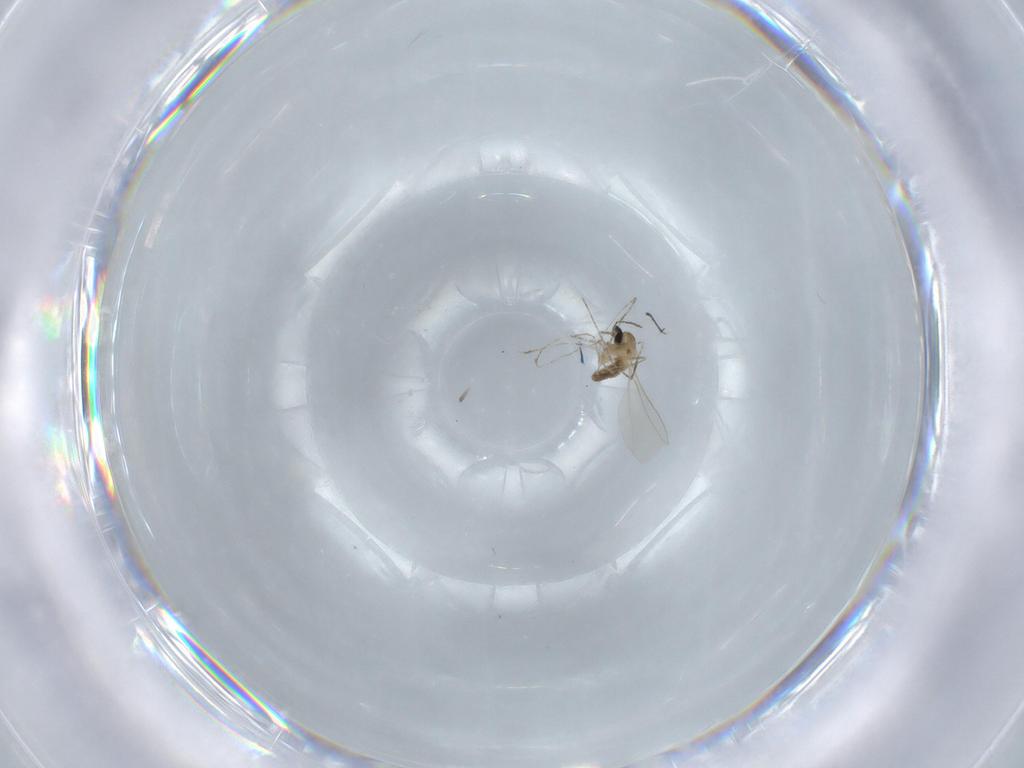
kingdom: Animalia
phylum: Arthropoda
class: Insecta
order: Diptera
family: Cecidomyiidae
